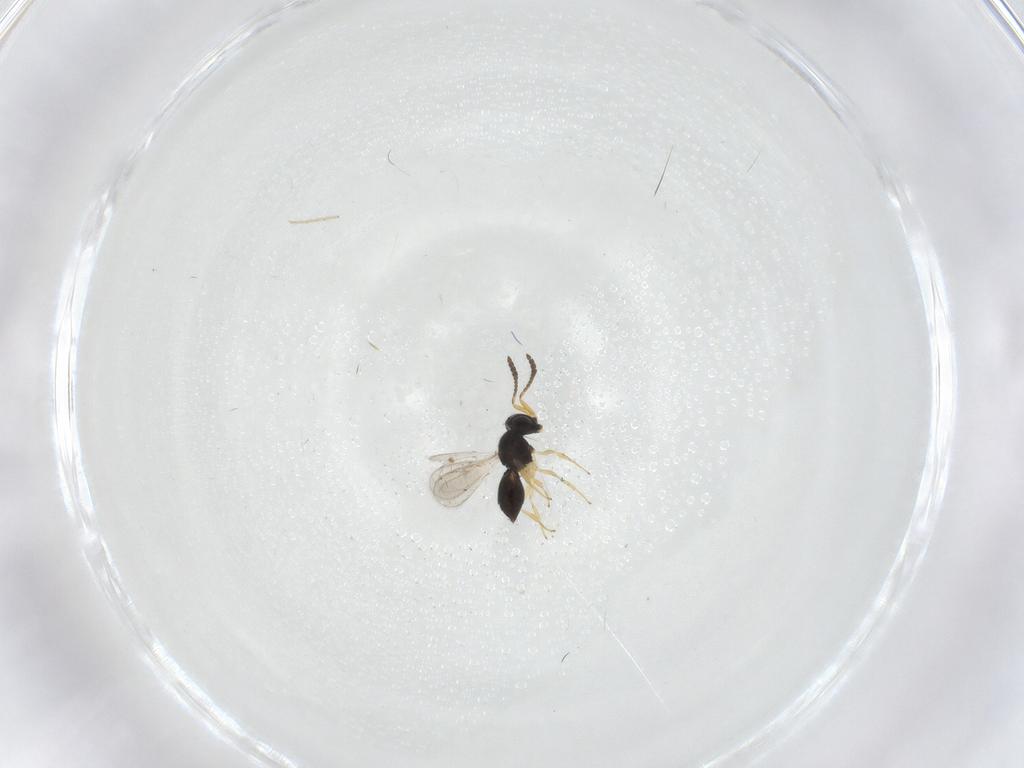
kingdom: Animalia
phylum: Arthropoda
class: Insecta
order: Hymenoptera
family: Scelionidae
